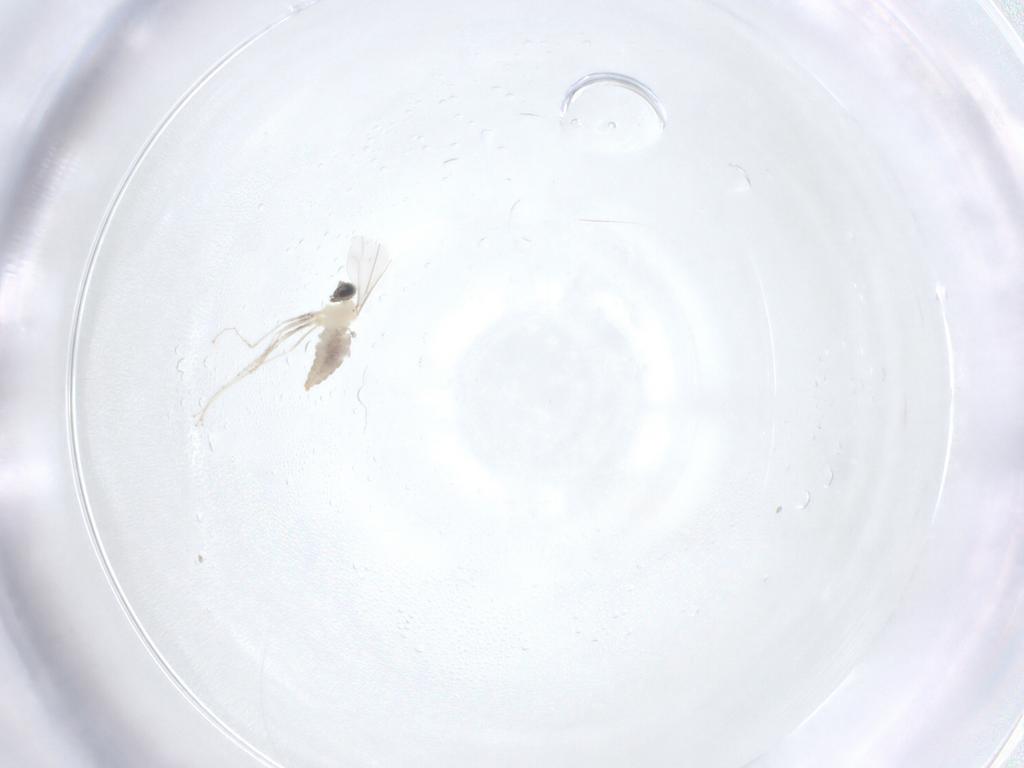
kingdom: Animalia
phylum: Arthropoda
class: Insecta
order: Diptera
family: Cecidomyiidae
